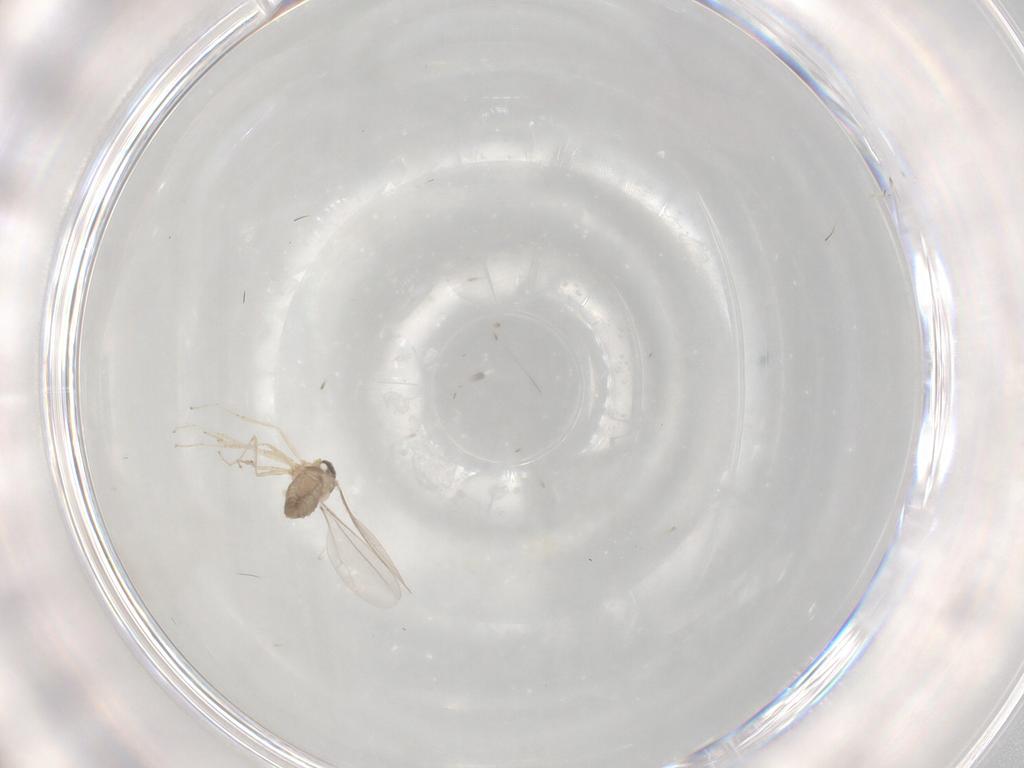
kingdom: Animalia
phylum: Arthropoda
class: Insecta
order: Diptera
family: Cecidomyiidae
